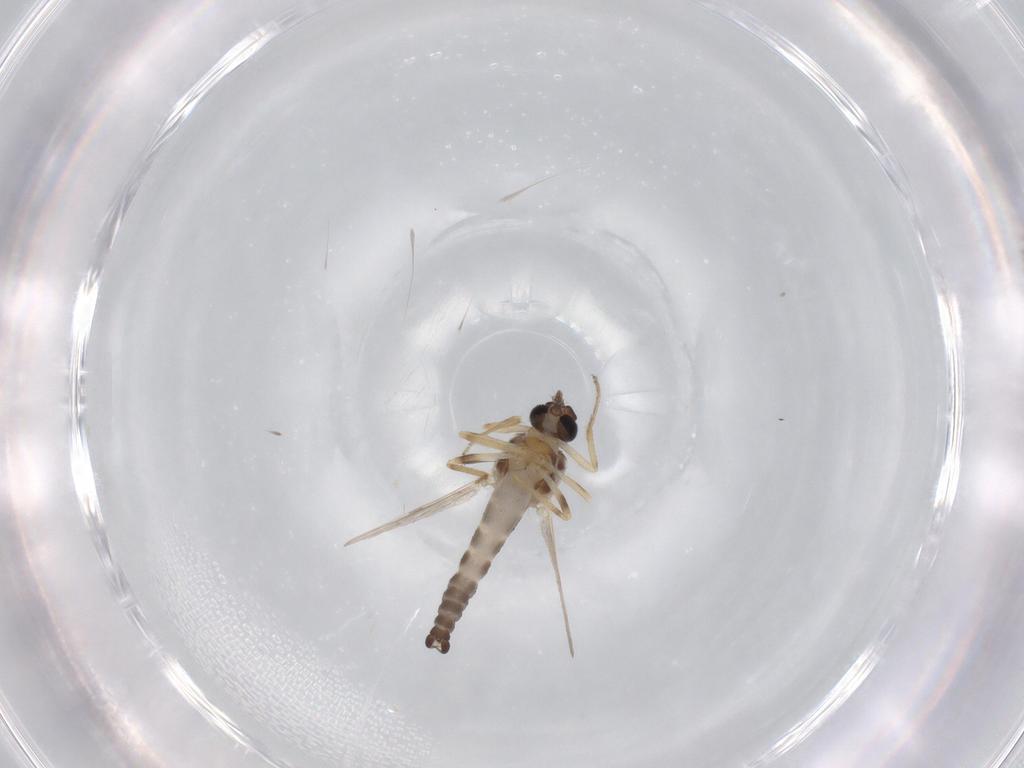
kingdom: Animalia
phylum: Arthropoda
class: Insecta
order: Diptera
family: Ceratopogonidae
